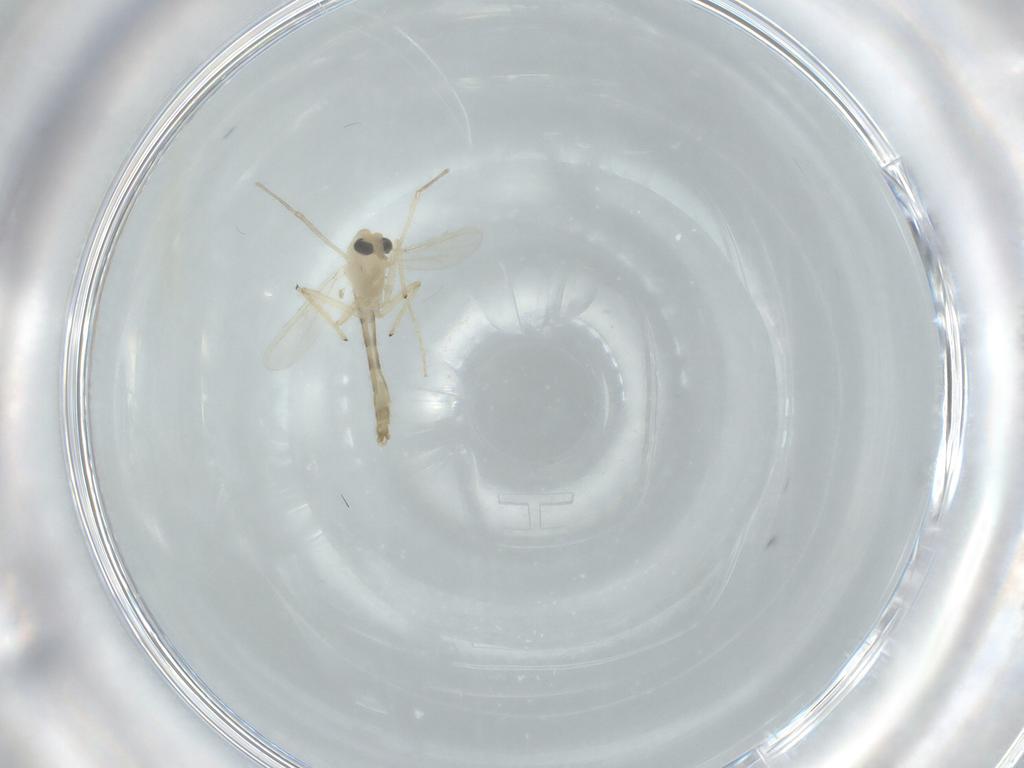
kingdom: Animalia
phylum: Arthropoda
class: Insecta
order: Diptera
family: Chironomidae
